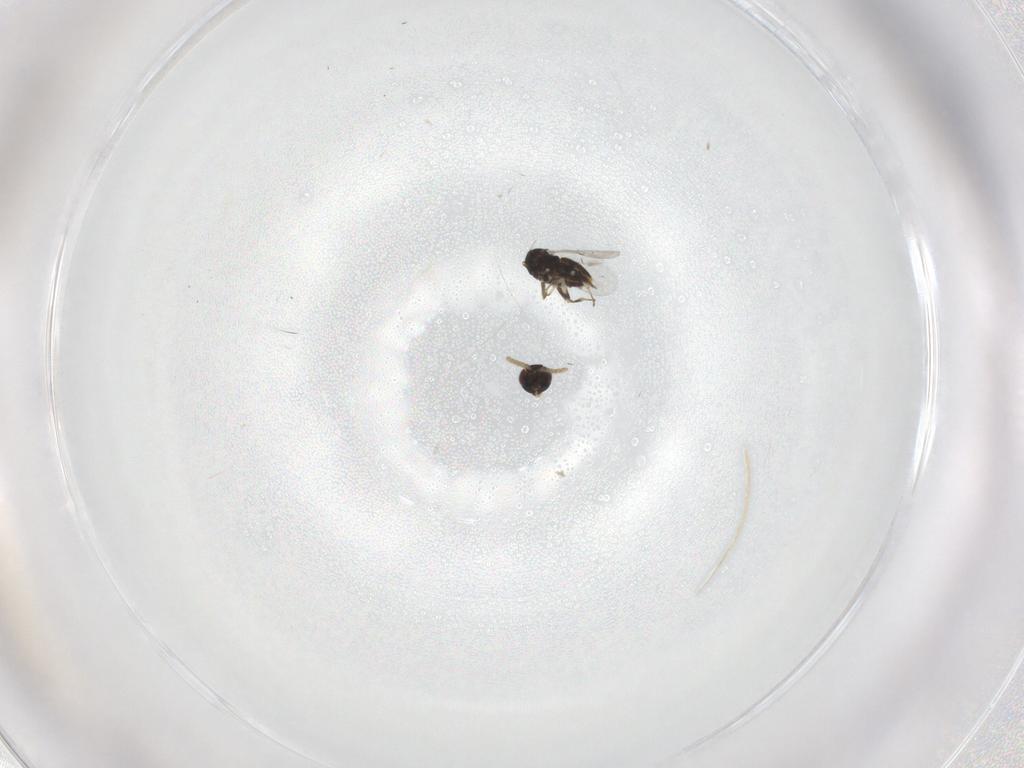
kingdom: Animalia
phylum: Arthropoda
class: Insecta
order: Hymenoptera
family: Encyrtidae
